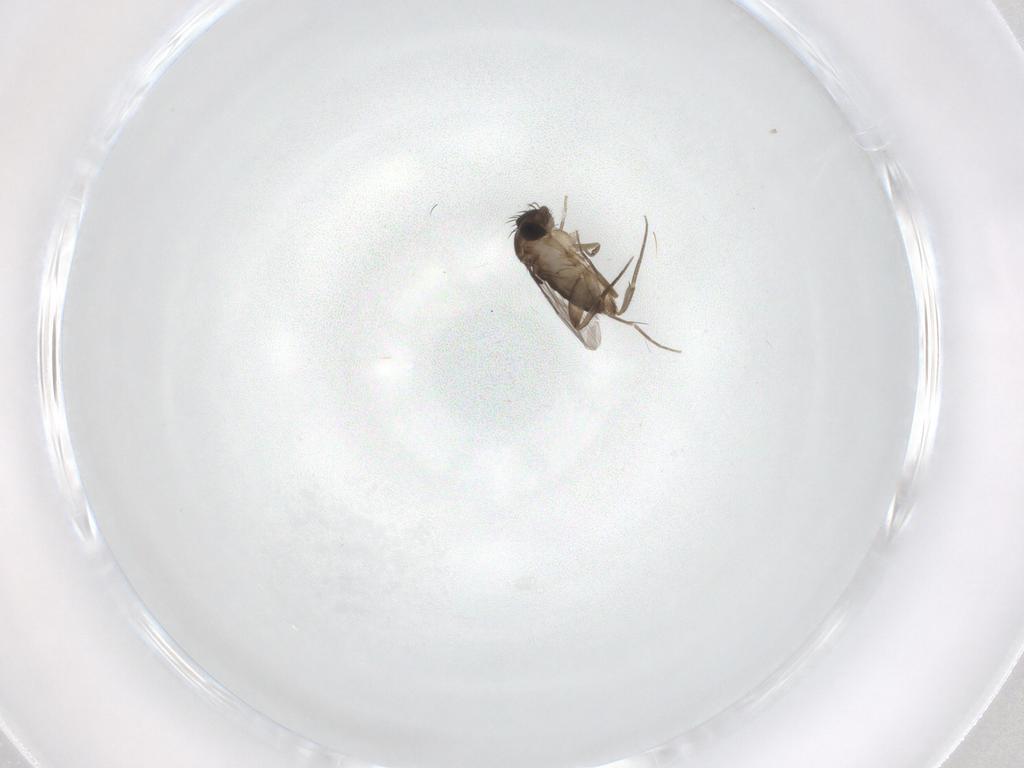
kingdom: Animalia
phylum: Arthropoda
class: Insecta
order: Diptera
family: Phoridae
